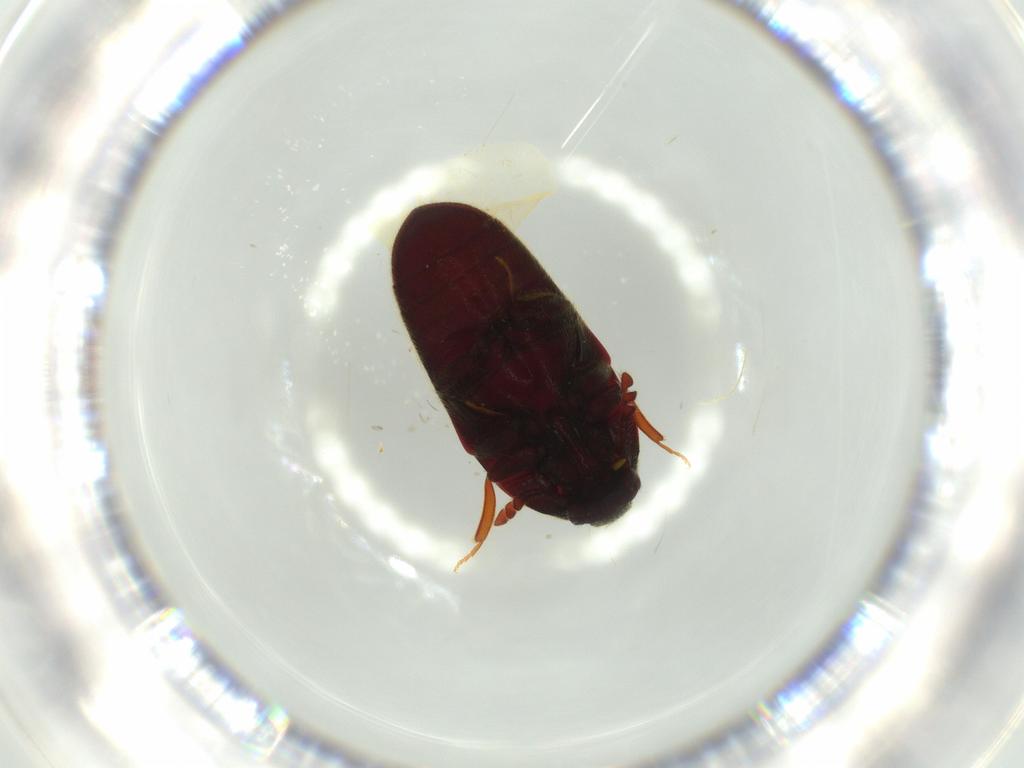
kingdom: Animalia
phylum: Arthropoda
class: Insecta
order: Coleoptera
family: Throscidae
